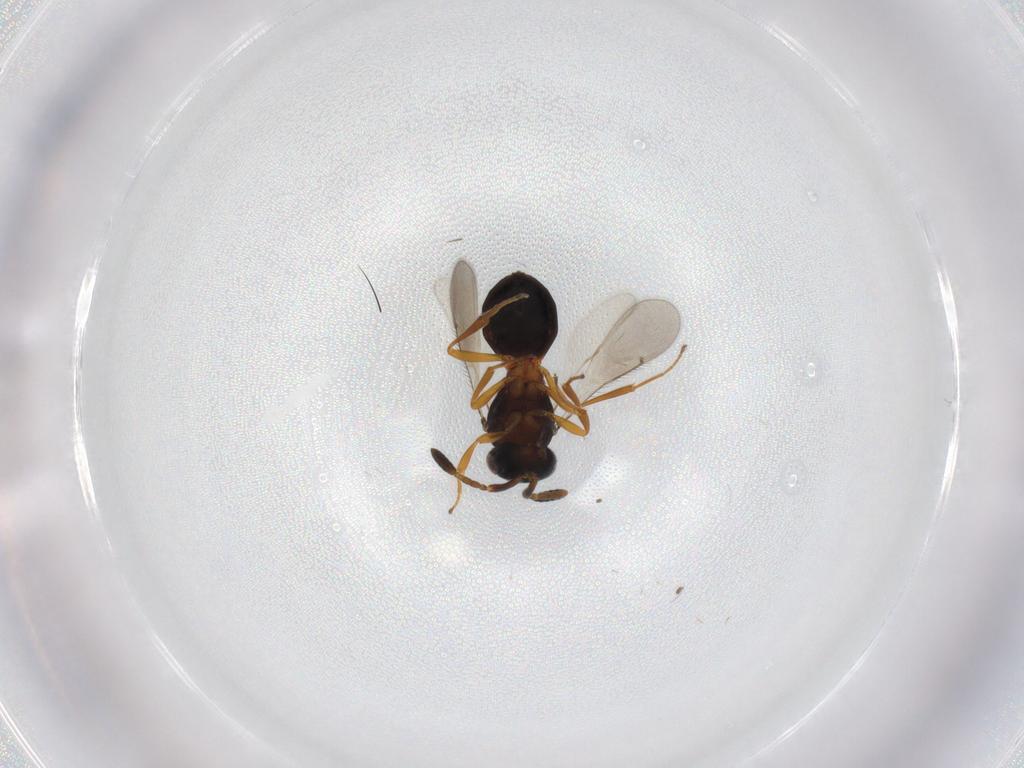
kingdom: Animalia
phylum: Arthropoda
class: Insecta
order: Hymenoptera
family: Scelionidae
